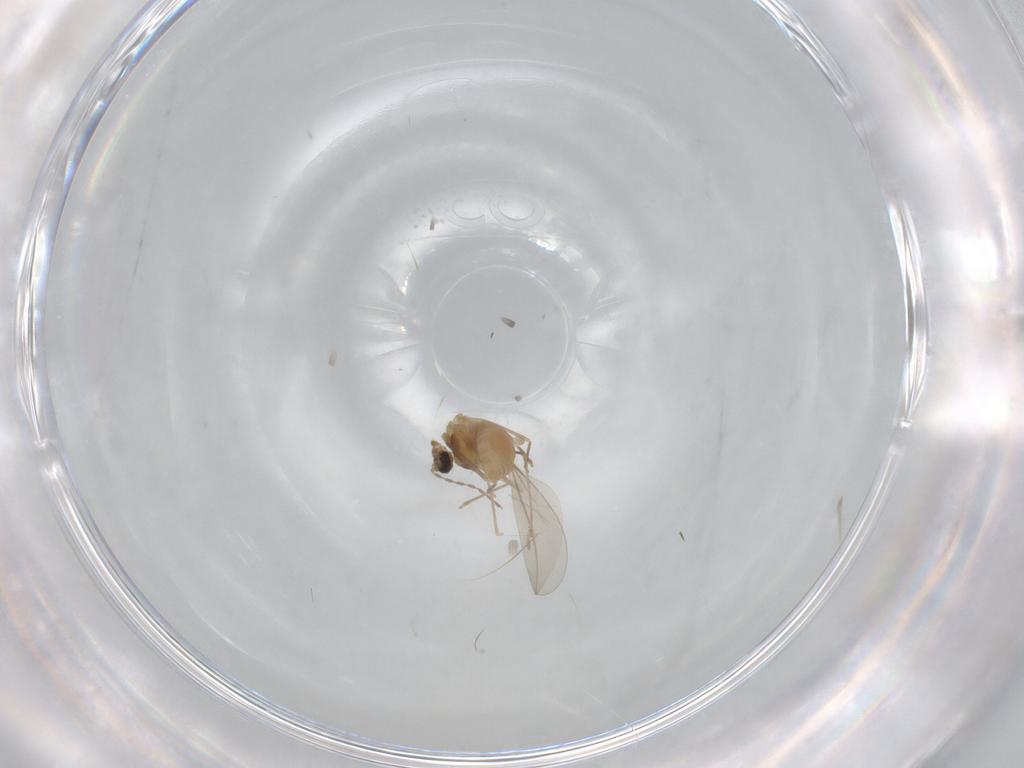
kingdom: Animalia
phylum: Arthropoda
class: Insecta
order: Diptera
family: Cecidomyiidae
